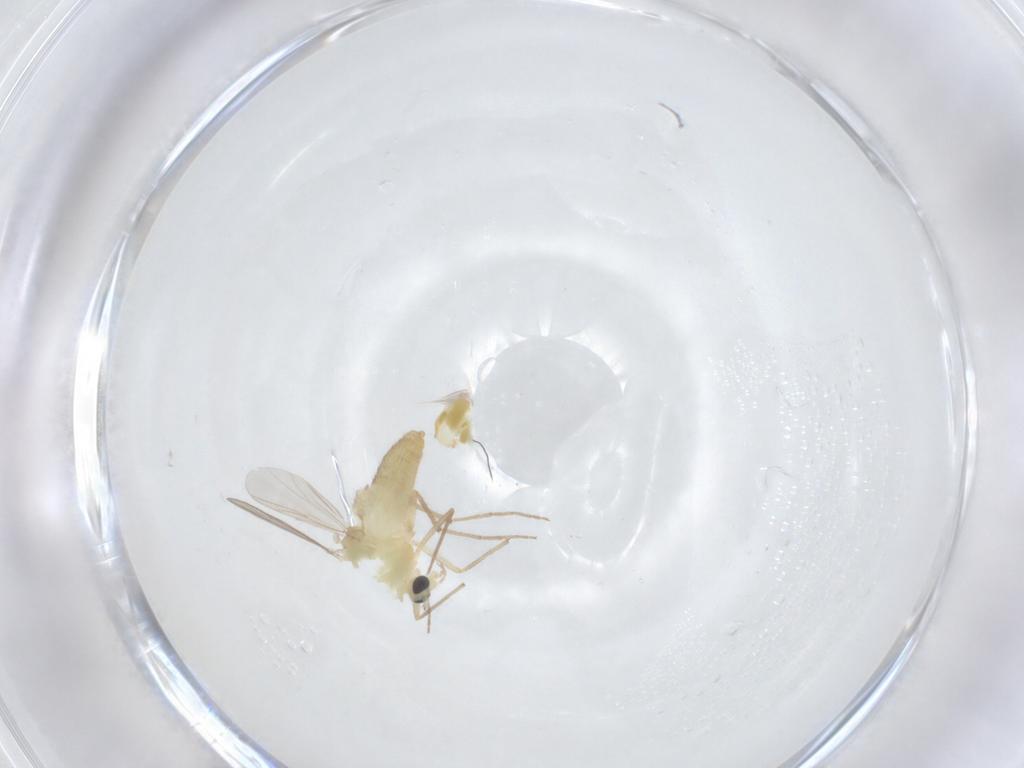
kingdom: Animalia
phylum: Arthropoda
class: Insecta
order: Diptera
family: Chironomidae
